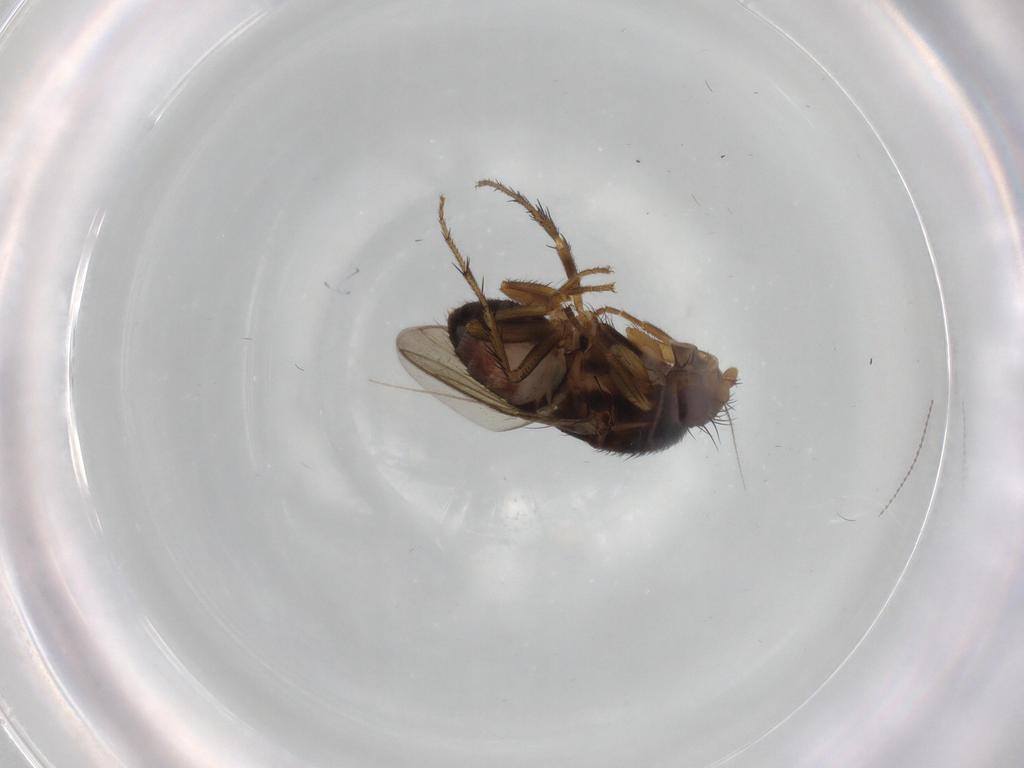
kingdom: Animalia
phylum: Arthropoda
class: Insecta
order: Diptera
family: Sphaeroceridae
